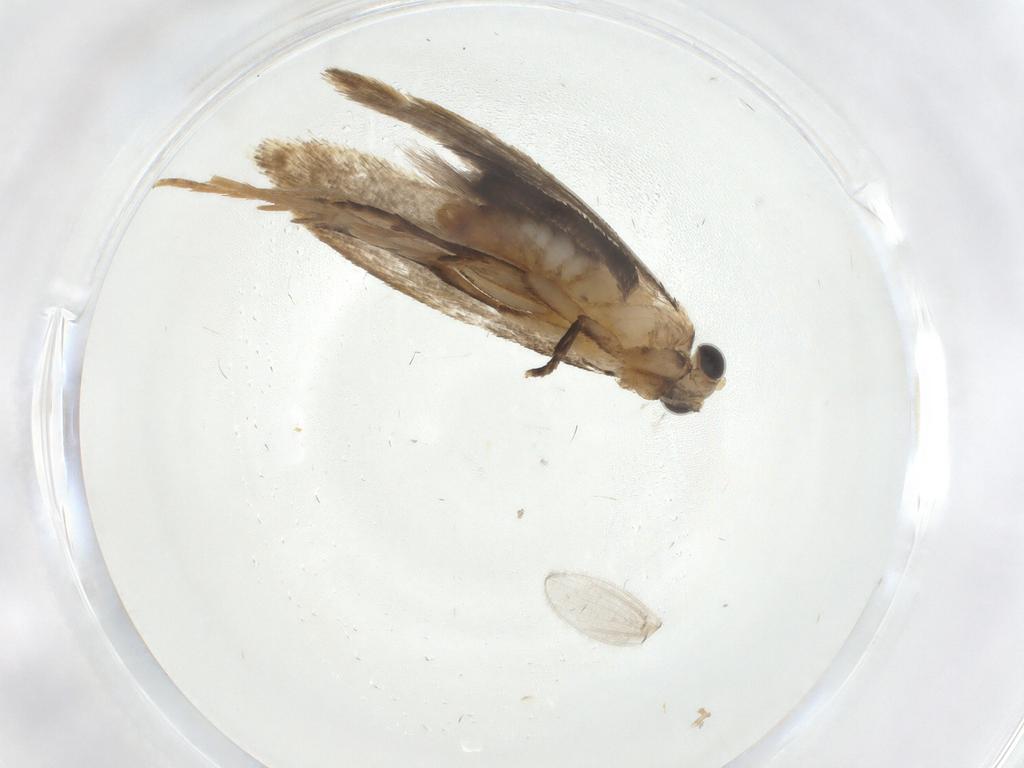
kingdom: Animalia
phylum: Arthropoda
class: Insecta
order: Lepidoptera
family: Tineidae
